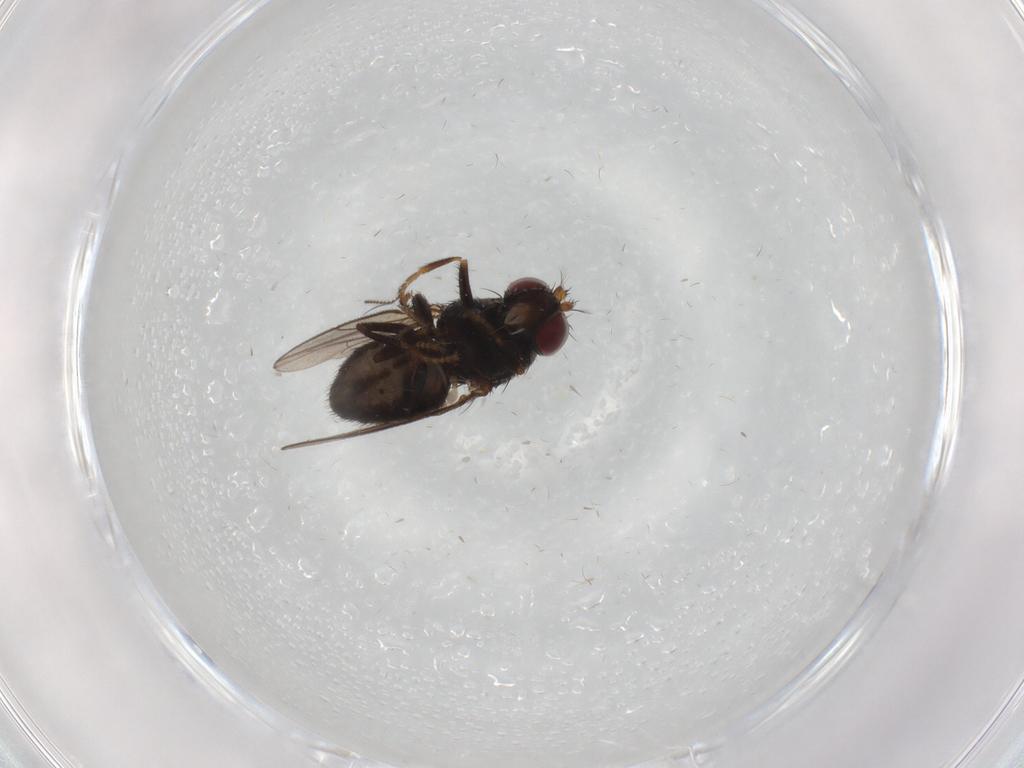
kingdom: Animalia
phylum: Arthropoda
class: Insecta
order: Diptera
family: Ephydridae
